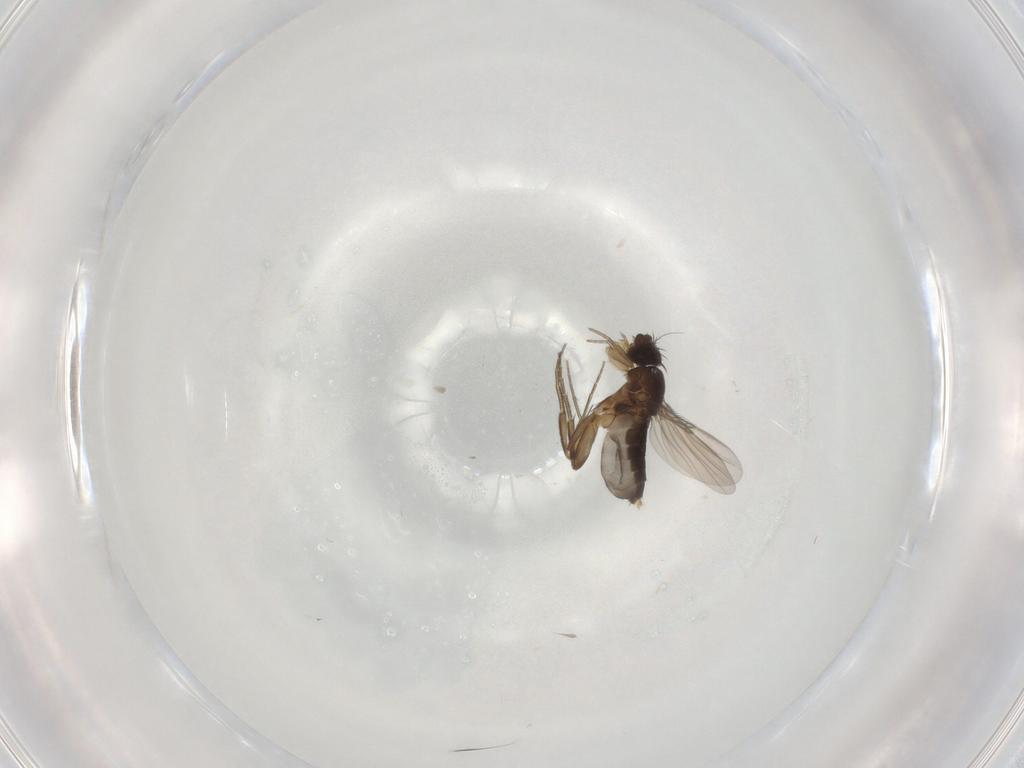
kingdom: Animalia
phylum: Arthropoda
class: Insecta
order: Diptera
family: Phoridae
